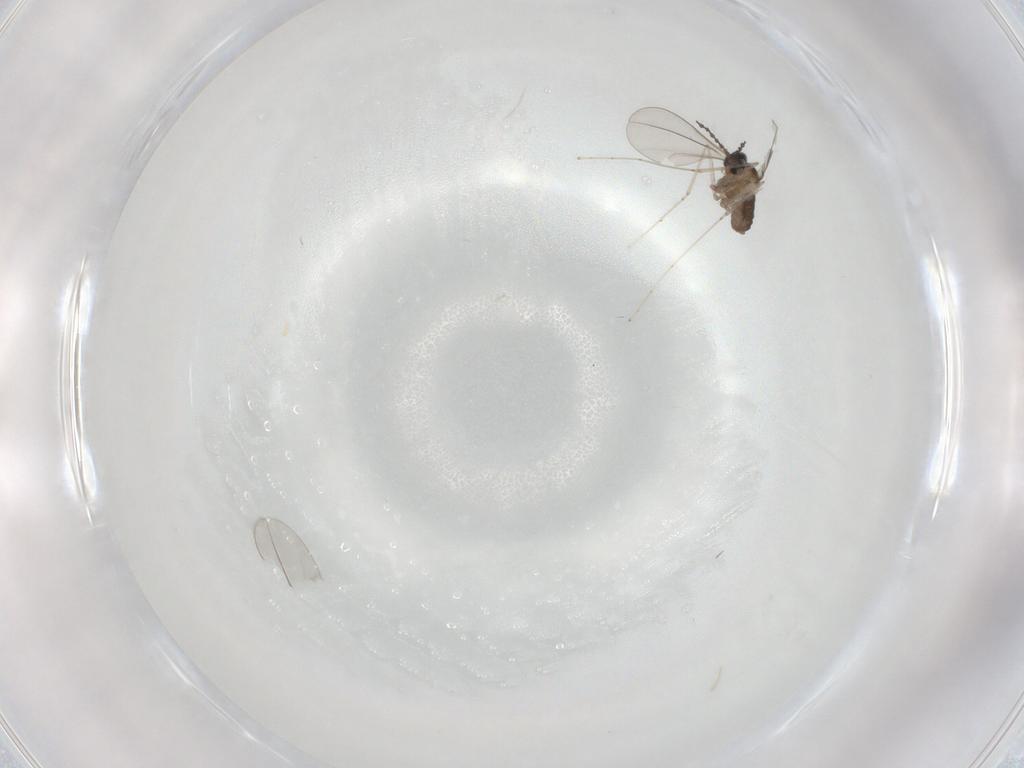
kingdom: Animalia
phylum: Arthropoda
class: Insecta
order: Diptera
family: Cecidomyiidae
